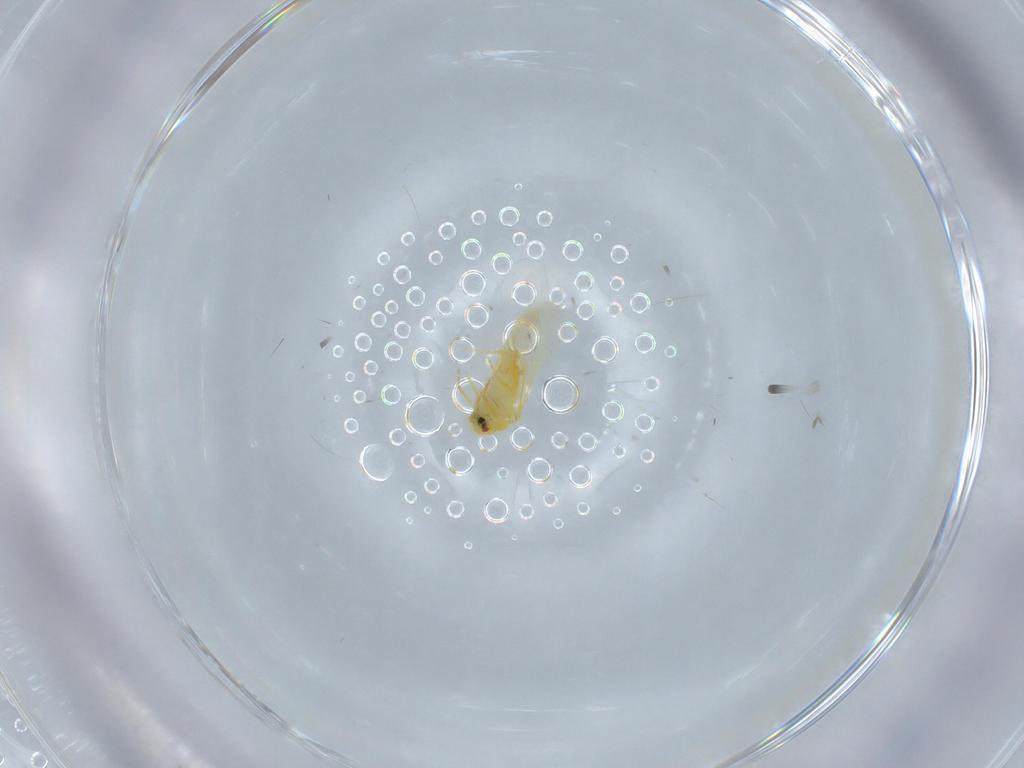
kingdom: Animalia
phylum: Arthropoda
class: Insecta
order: Hemiptera
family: Aleyrodidae
